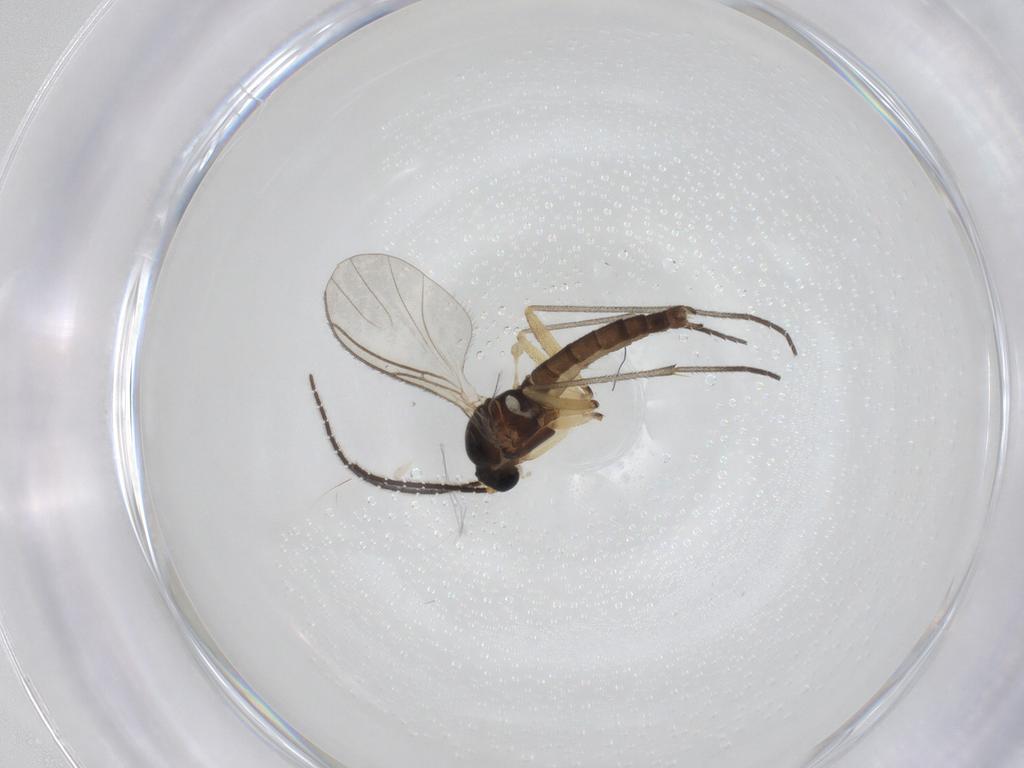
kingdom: Animalia
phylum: Arthropoda
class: Insecta
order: Diptera
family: Sciaridae
